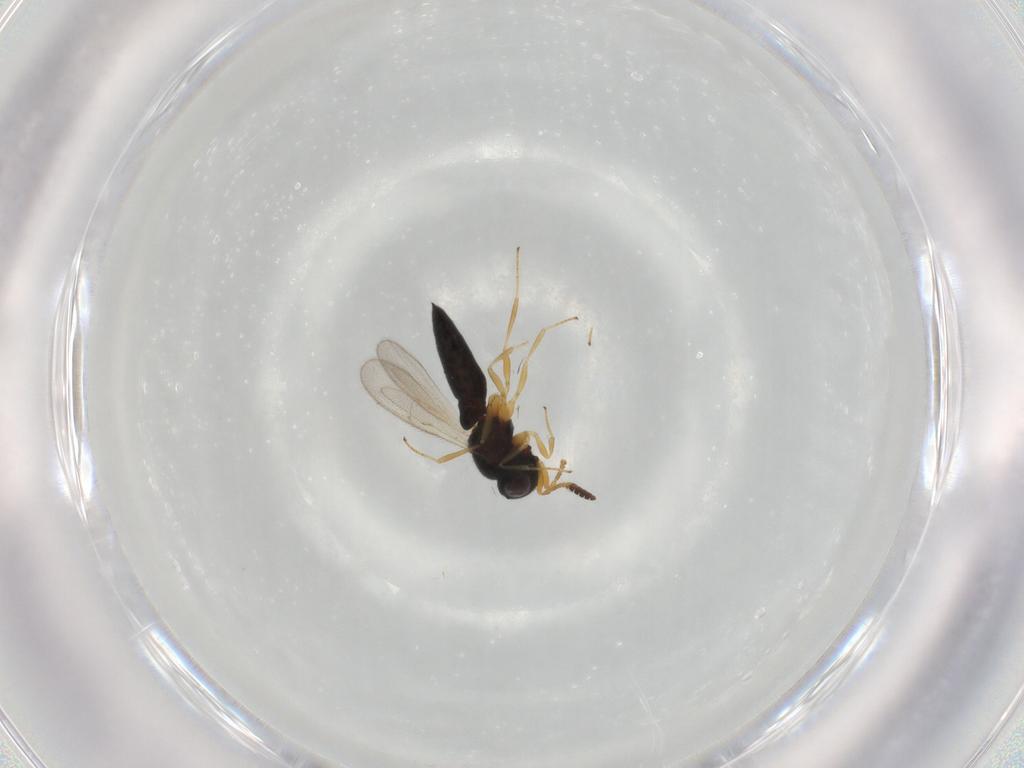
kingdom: Animalia
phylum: Arthropoda
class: Insecta
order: Hymenoptera
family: Scelionidae
